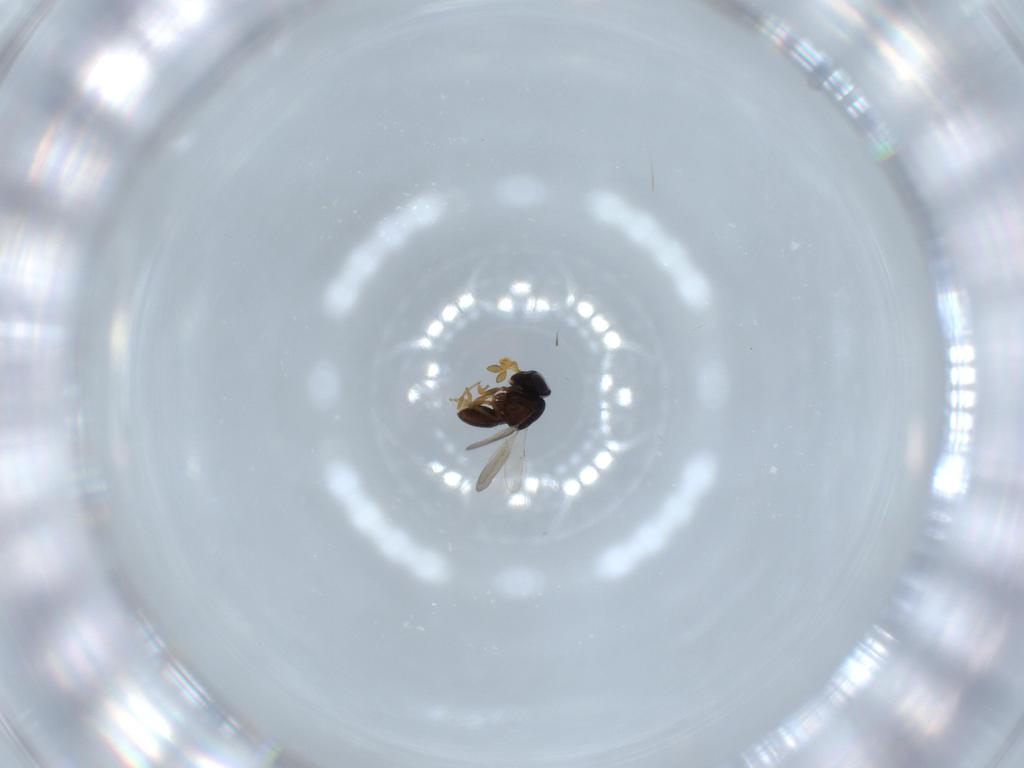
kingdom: Animalia
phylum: Arthropoda
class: Insecta
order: Hymenoptera
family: Scelionidae
